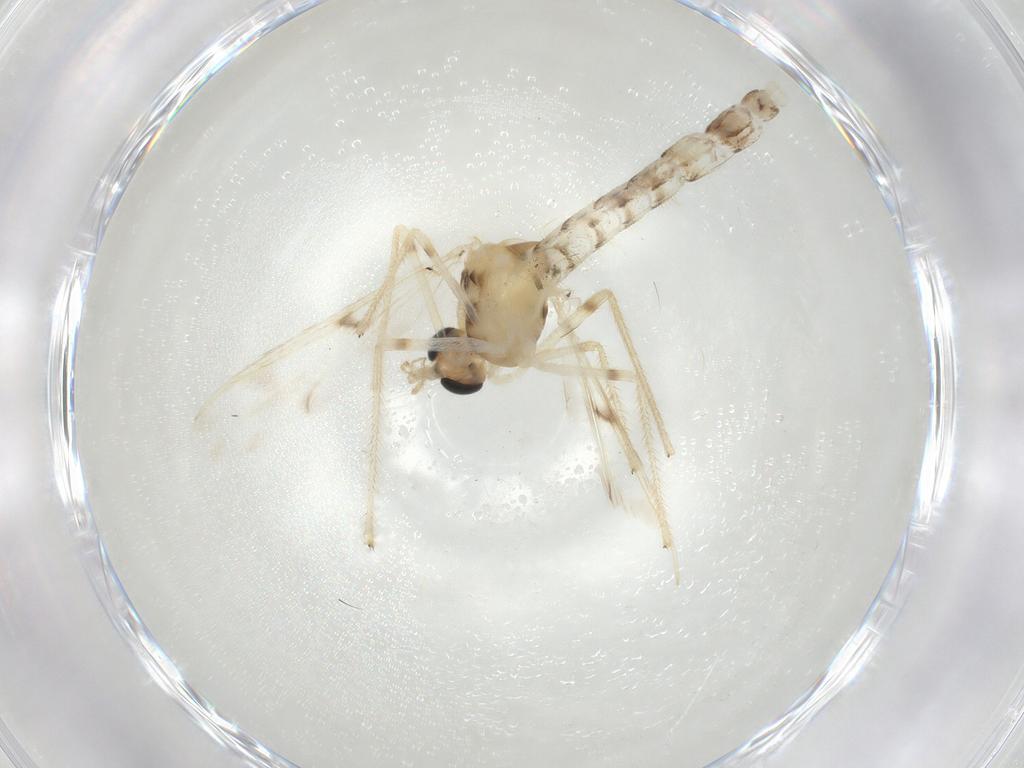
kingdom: Animalia
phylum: Arthropoda
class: Insecta
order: Diptera
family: Chironomidae
